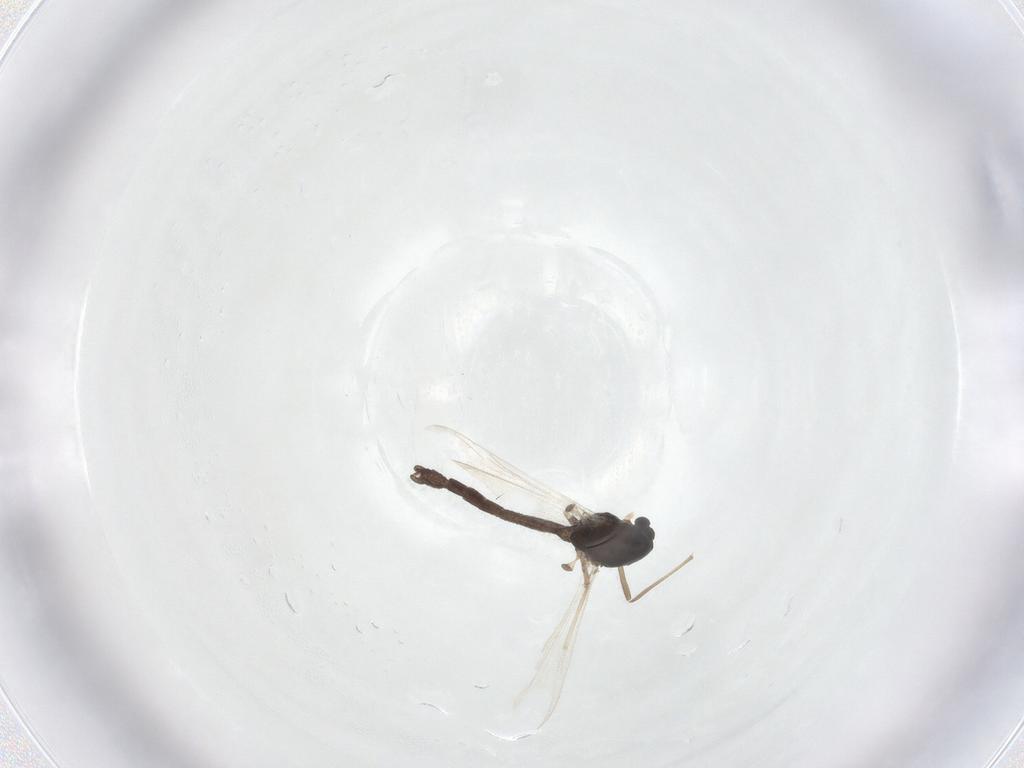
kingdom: Animalia
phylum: Arthropoda
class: Insecta
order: Diptera
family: Chironomidae
